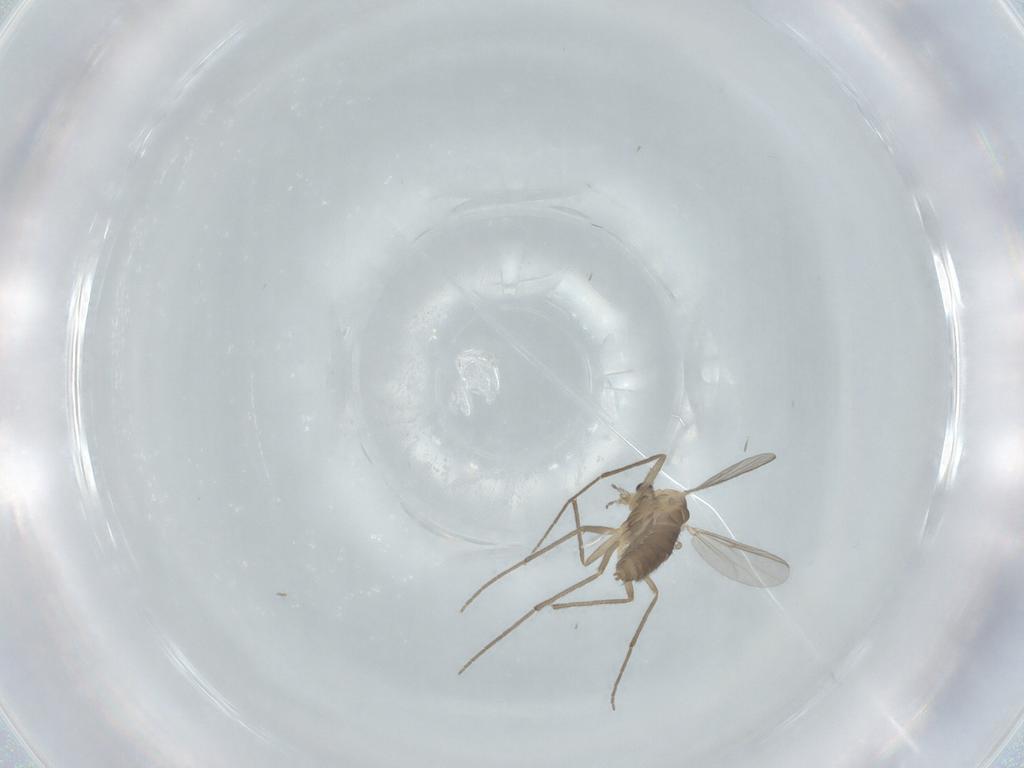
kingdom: Animalia
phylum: Arthropoda
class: Insecta
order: Diptera
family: Chironomidae
